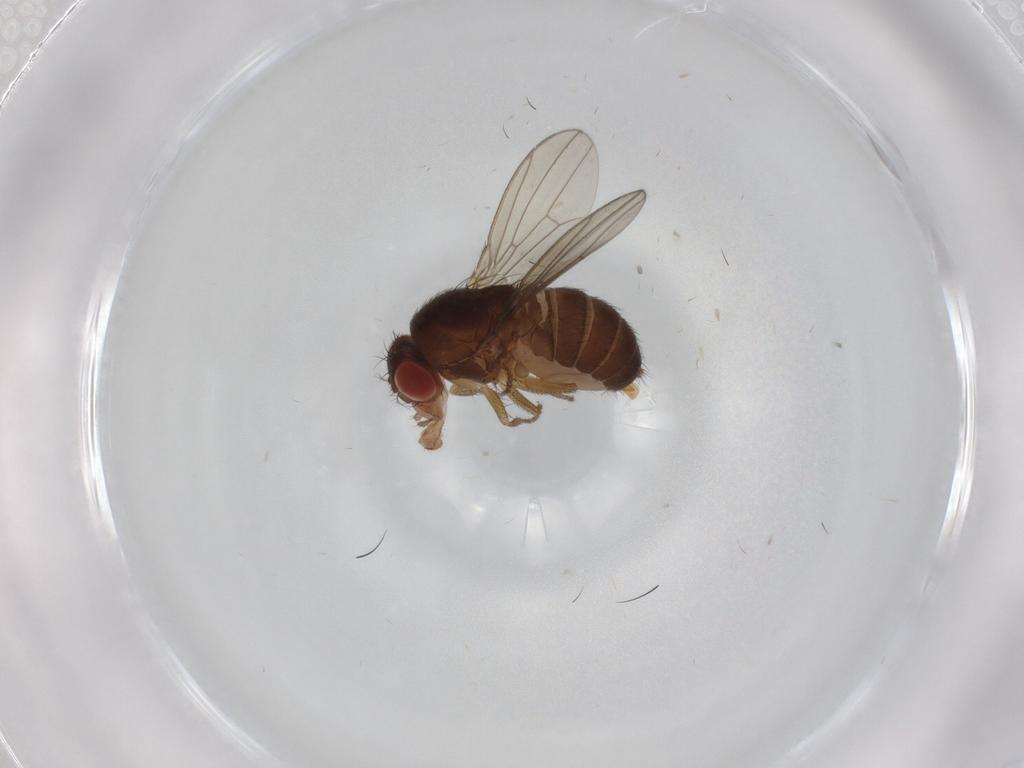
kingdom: Animalia
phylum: Arthropoda
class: Insecta
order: Diptera
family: Drosophilidae
